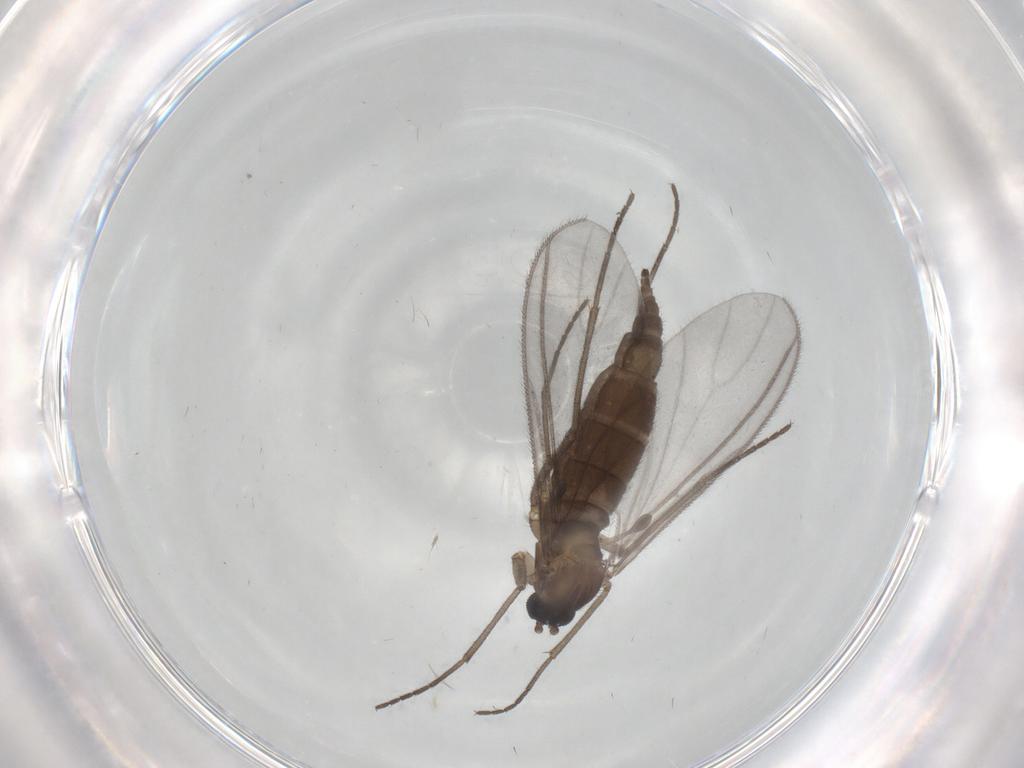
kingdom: Animalia
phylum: Arthropoda
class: Insecta
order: Diptera
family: Sciaridae
